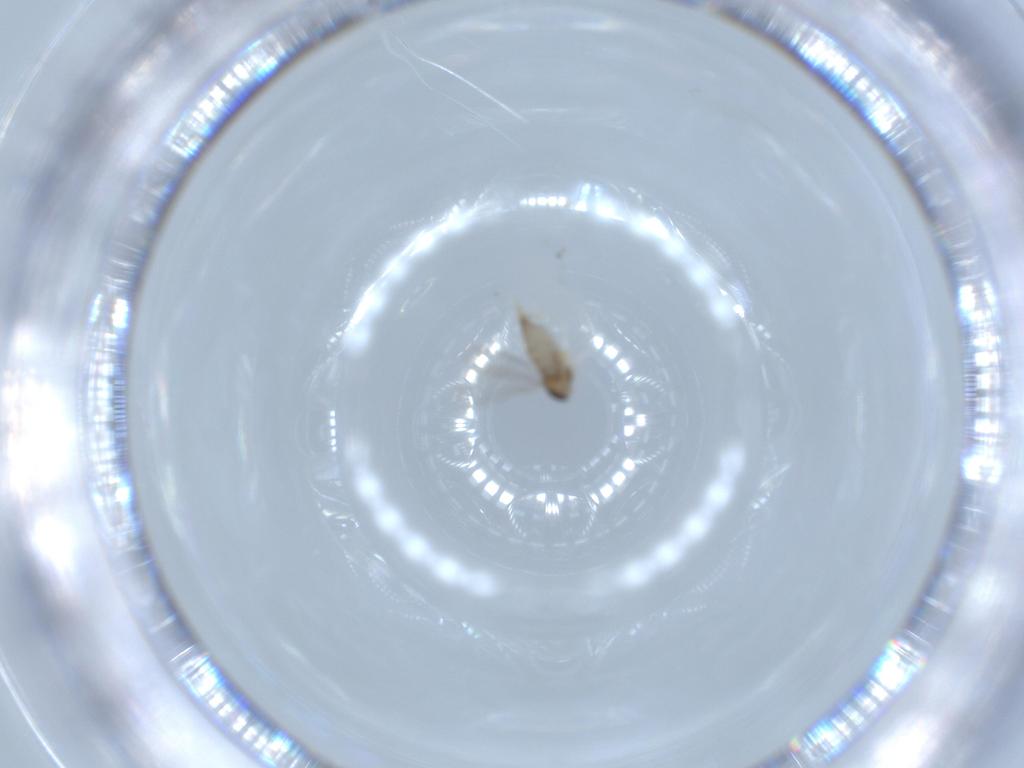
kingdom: Animalia
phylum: Arthropoda
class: Insecta
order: Diptera
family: Cecidomyiidae
